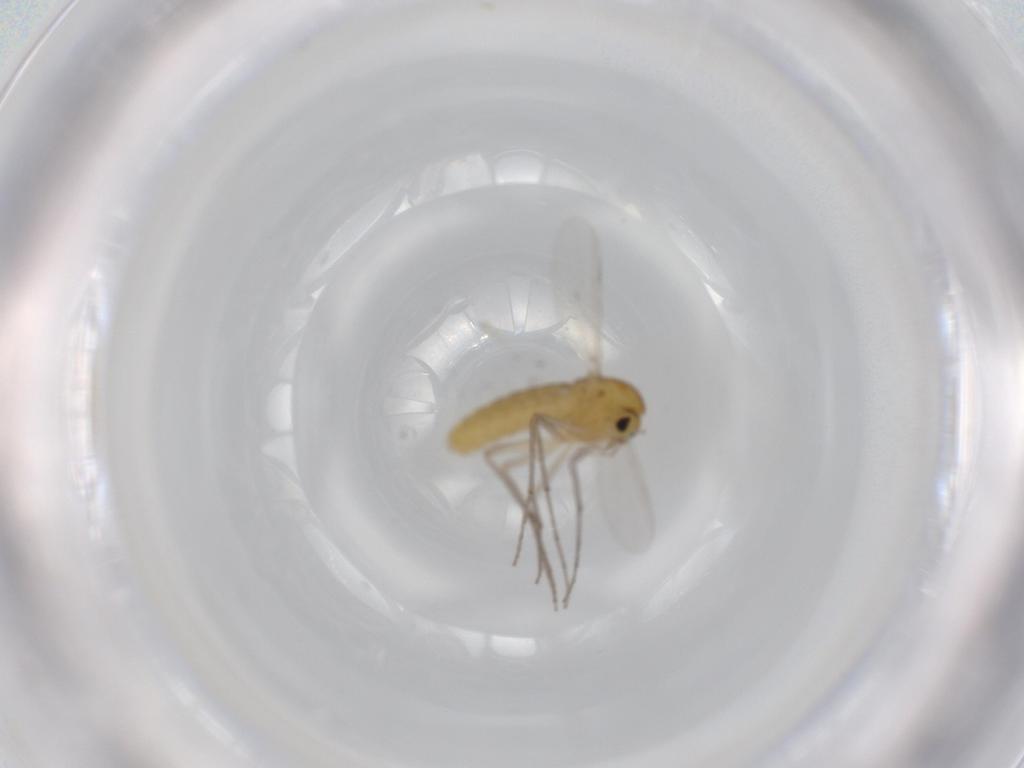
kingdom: Animalia
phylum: Arthropoda
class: Insecta
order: Diptera
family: Chironomidae
